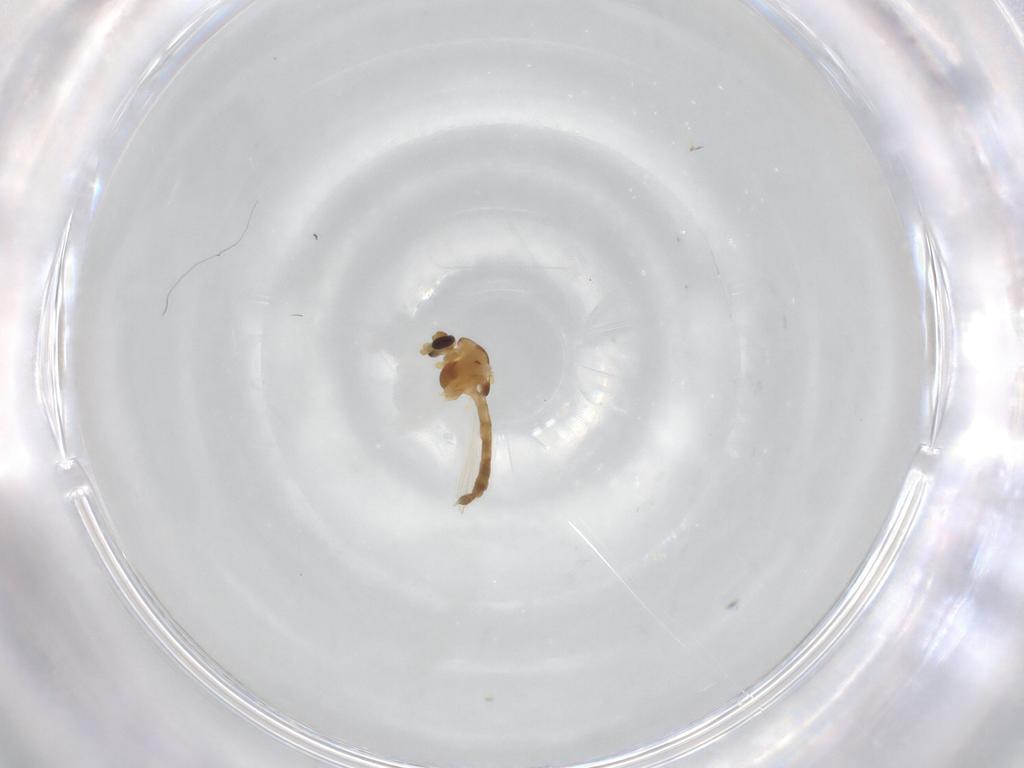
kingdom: Animalia
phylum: Arthropoda
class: Insecta
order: Diptera
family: Chironomidae
